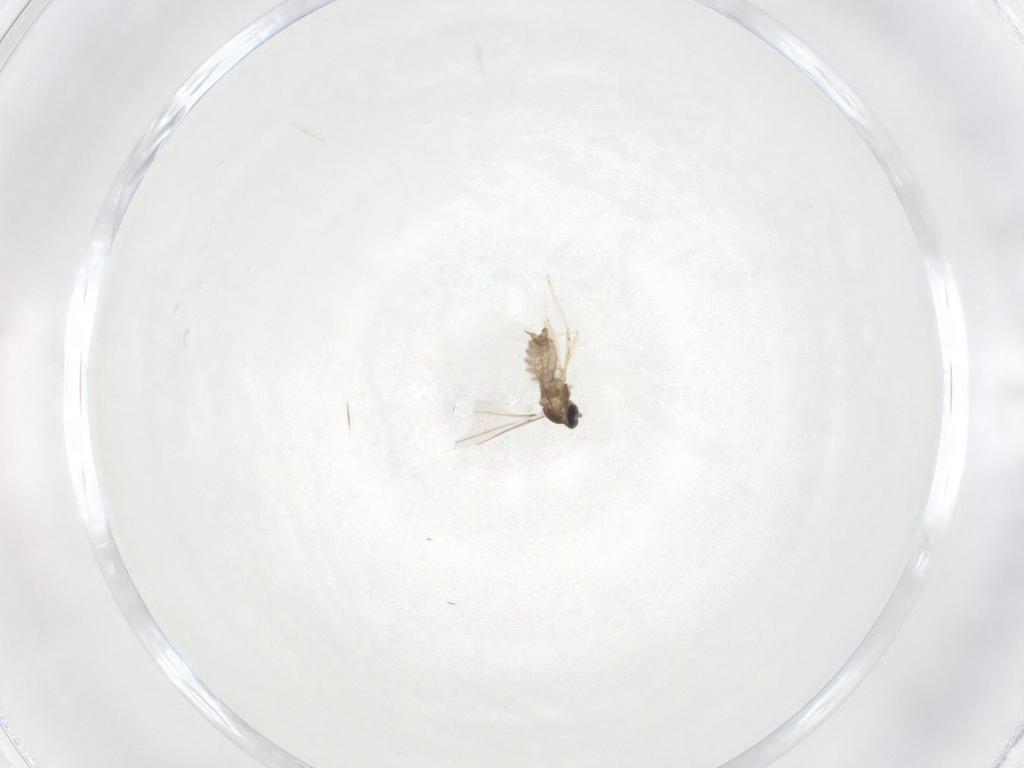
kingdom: Animalia
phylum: Arthropoda
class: Insecta
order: Diptera
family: Cecidomyiidae
